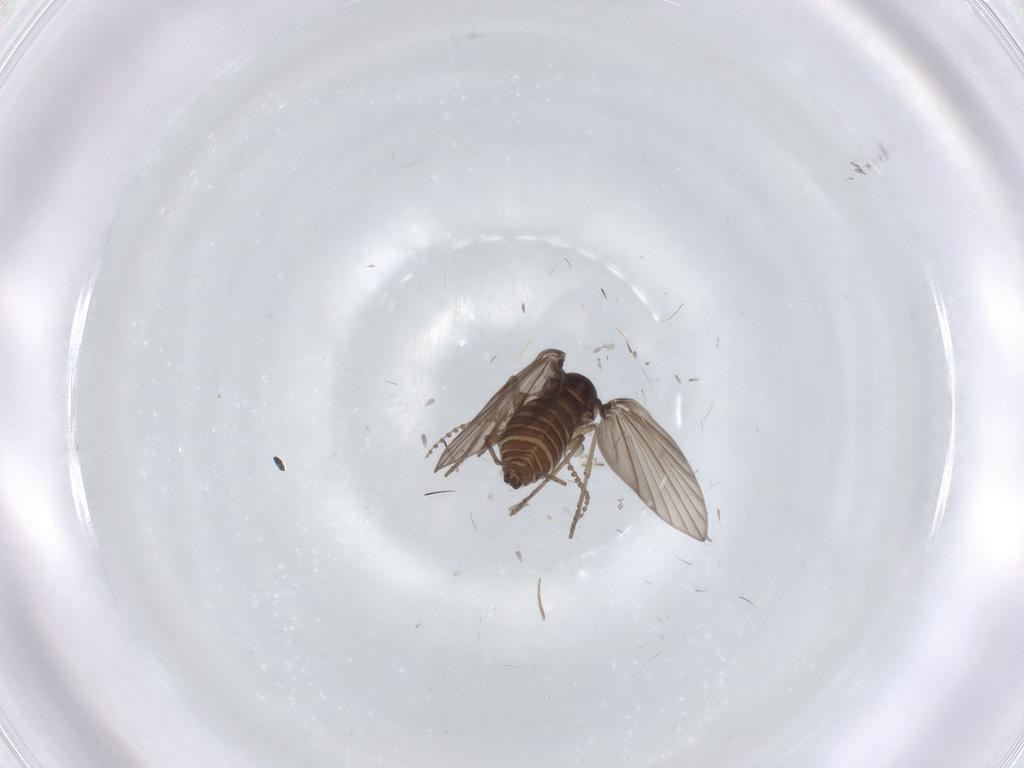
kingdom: Animalia
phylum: Arthropoda
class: Insecta
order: Diptera
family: Psychodidae
